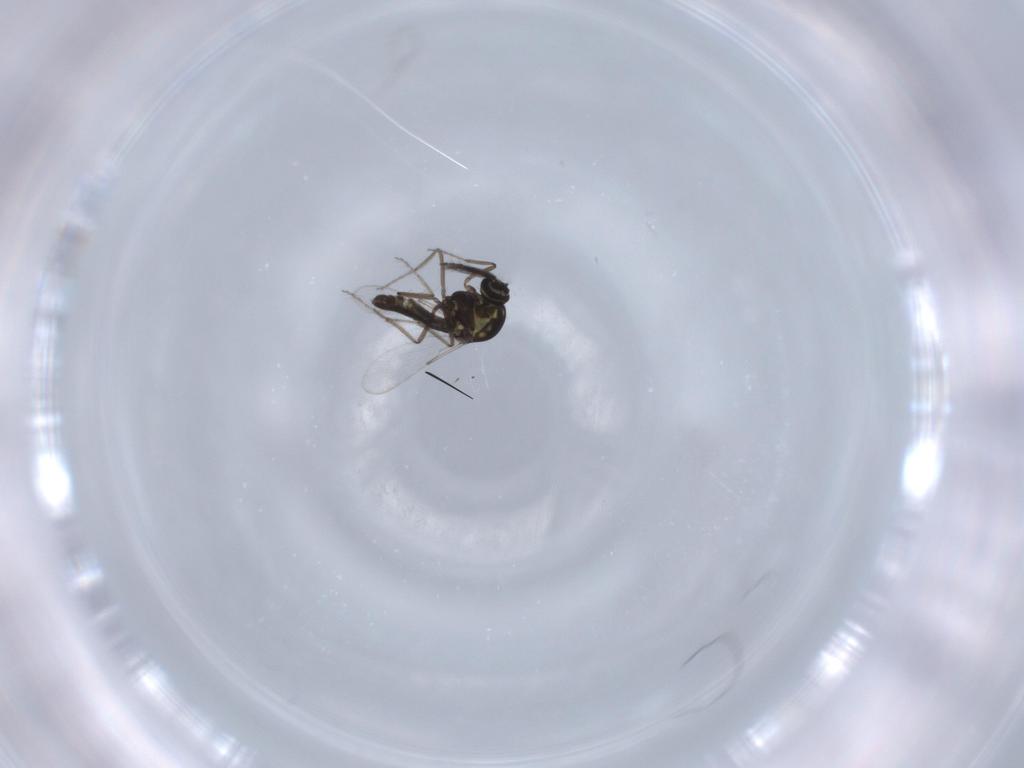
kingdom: Animalia
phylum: Arthropoda
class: Insecta
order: Diptera
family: Ceratopogonidae
